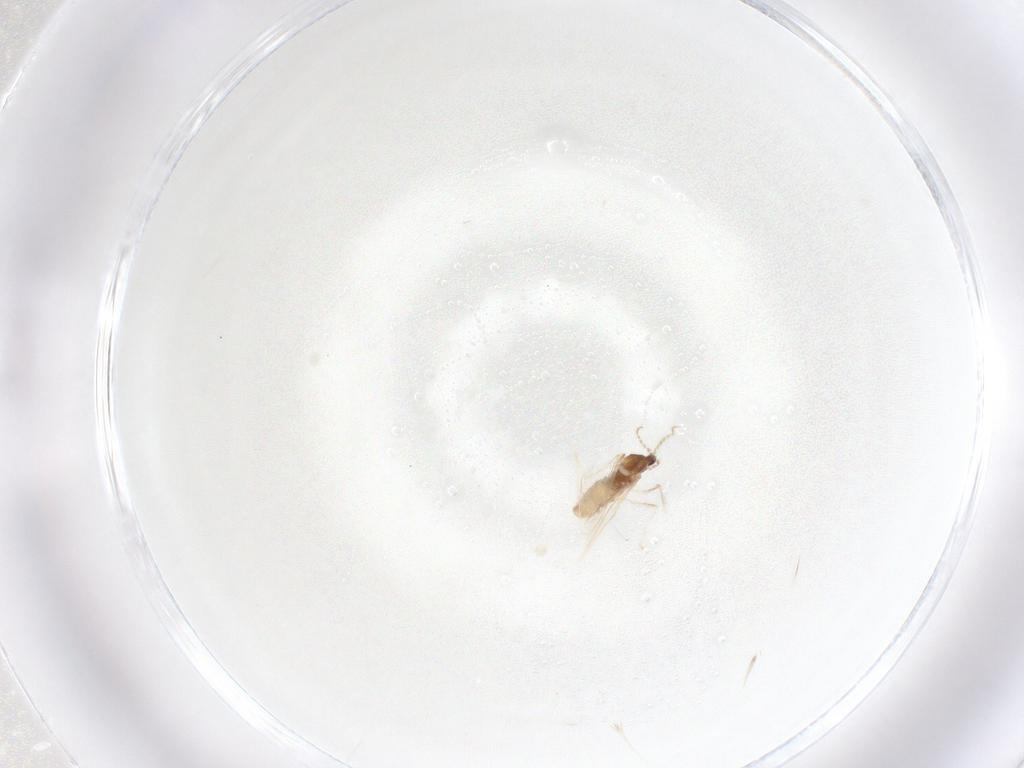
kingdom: Animalia
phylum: Arthropoda
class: Insecta
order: Diptera
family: Cecidomyiidae
